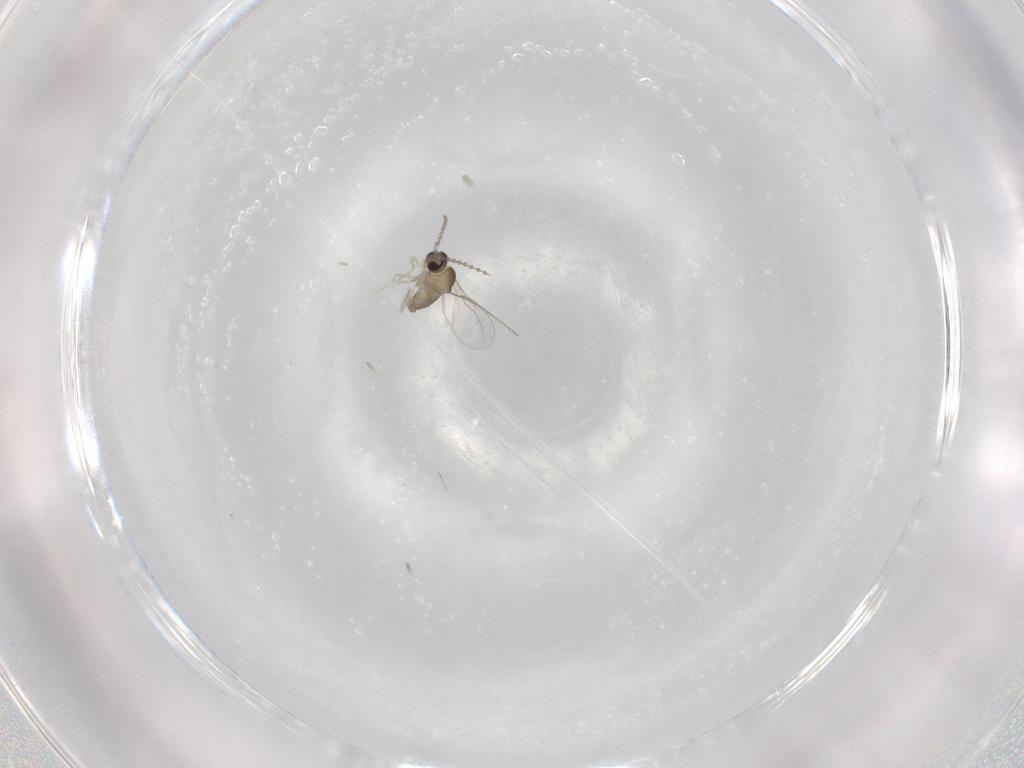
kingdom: Animalia
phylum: Arthropoda
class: Insecta
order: Diptera
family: Cecidomyiidae
